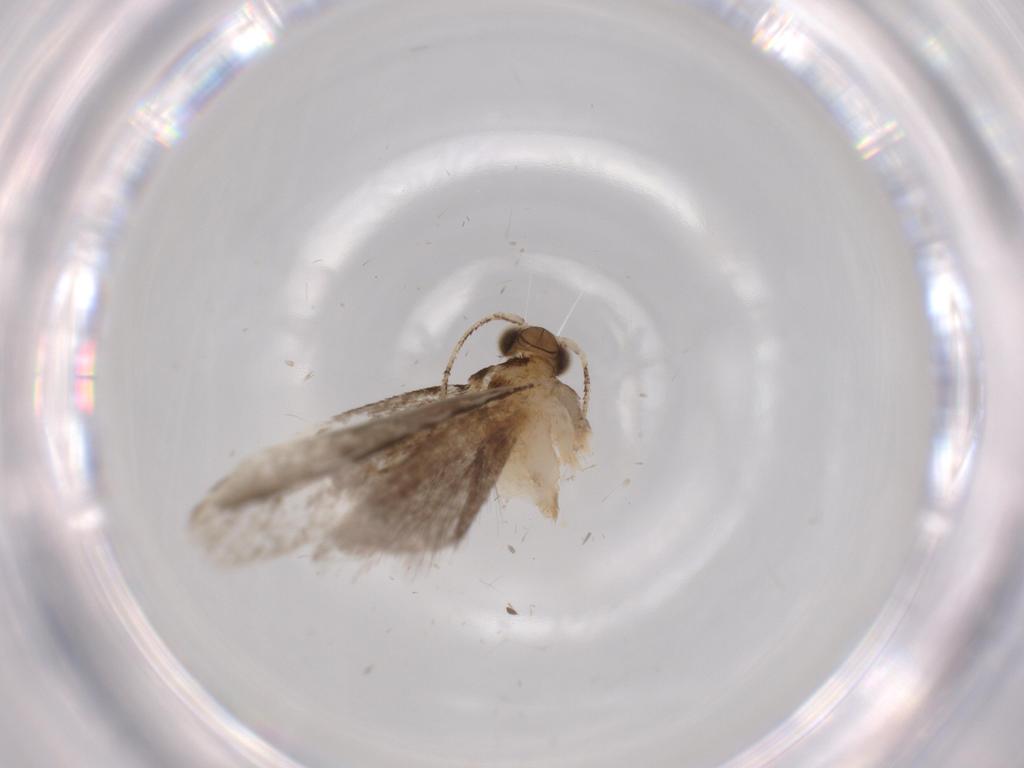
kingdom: Animalia
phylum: Arthropoda
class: Insecta
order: Lepidoptera
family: Tineidae
